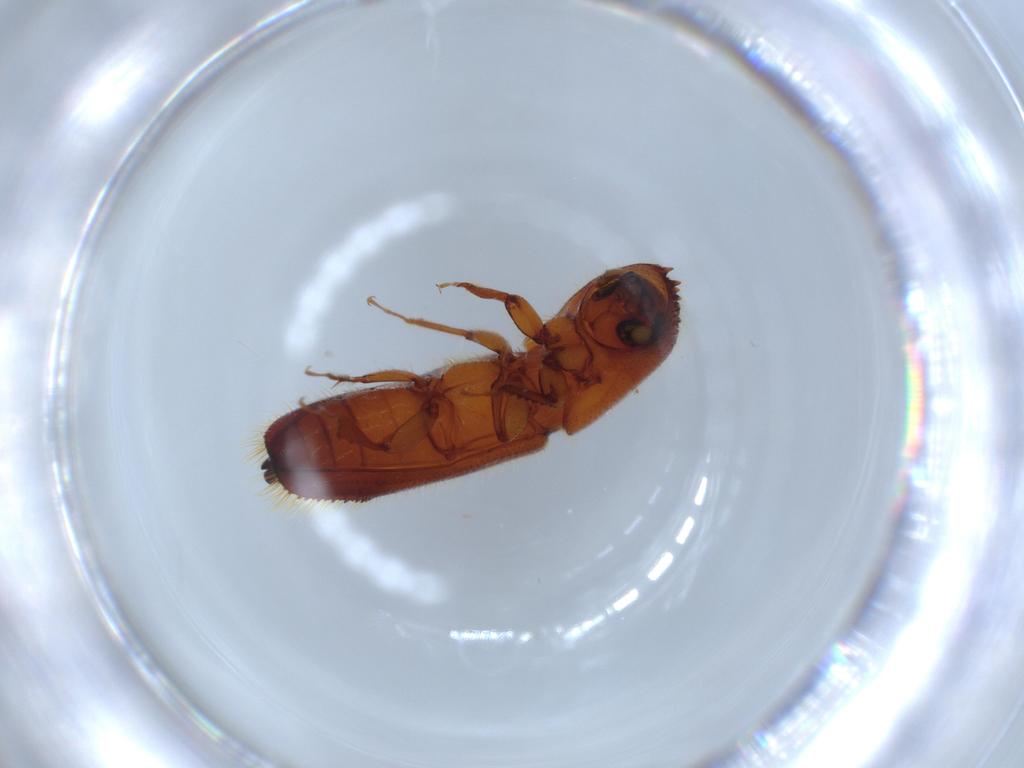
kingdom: Animalia
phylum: Arthropoda
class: Insecta
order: Coleoptera
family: Curculionidae
